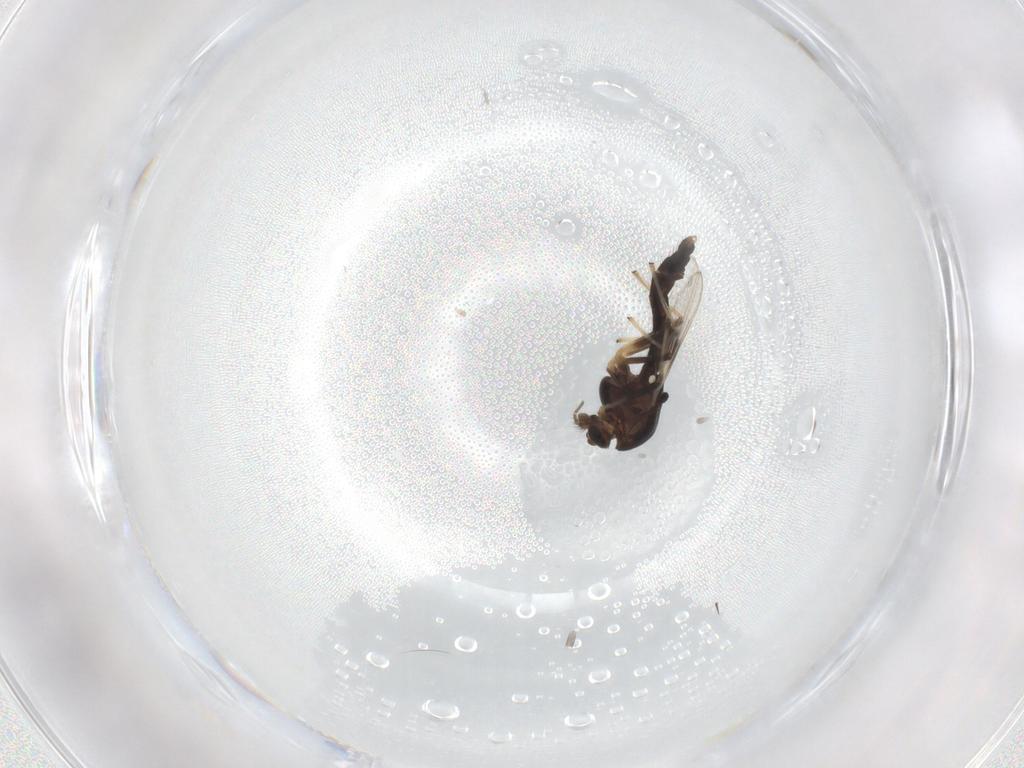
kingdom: Animalia
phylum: Arthropoda
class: Insecta
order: Diptera
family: Chironomidae
